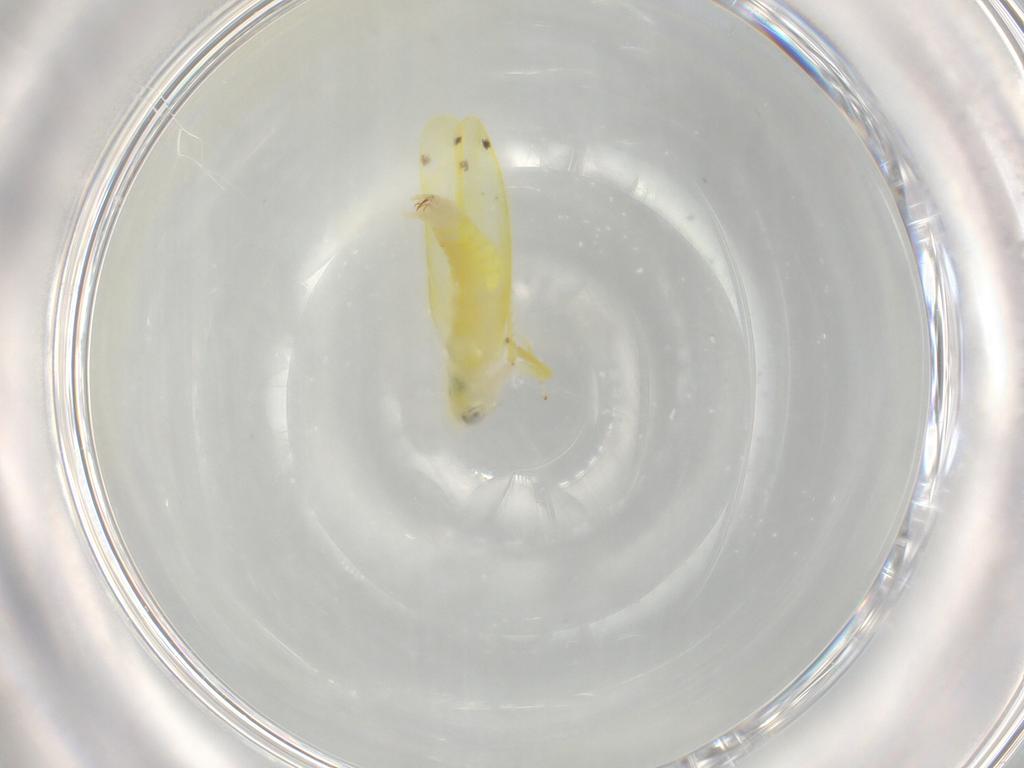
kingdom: Animalia
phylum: Arthropoda
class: Insecta
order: Hemiptera
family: Cicadellidae
